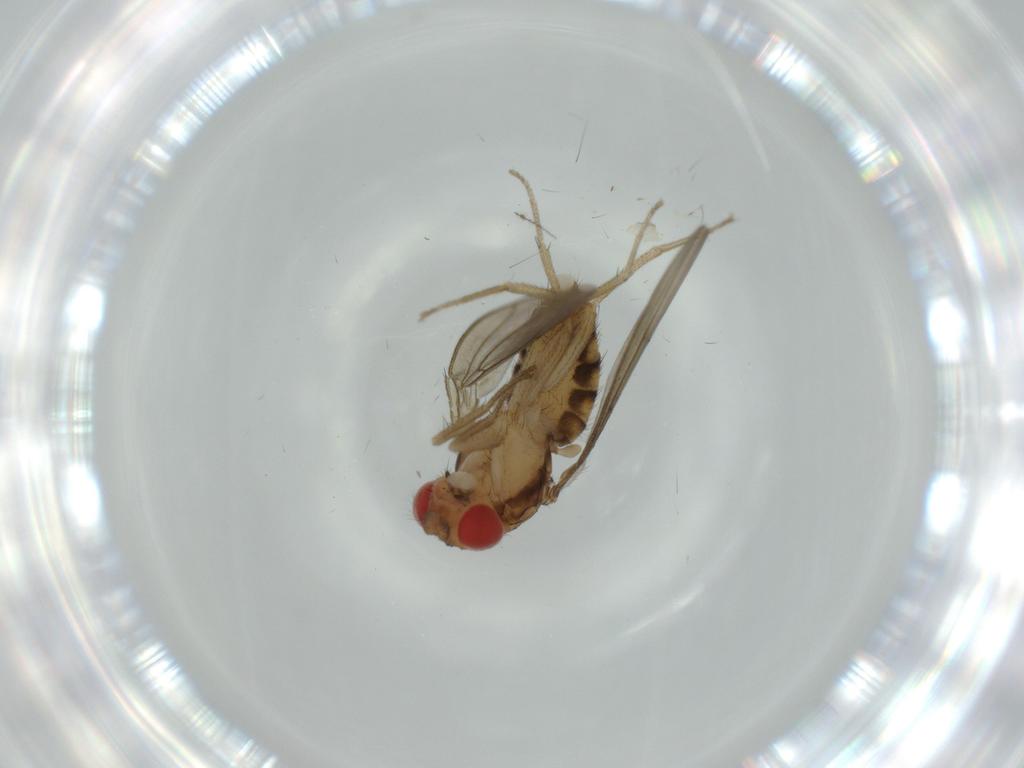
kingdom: Animalia
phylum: Arthropoda
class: Insecta
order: Diptera
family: Drosophilidae
